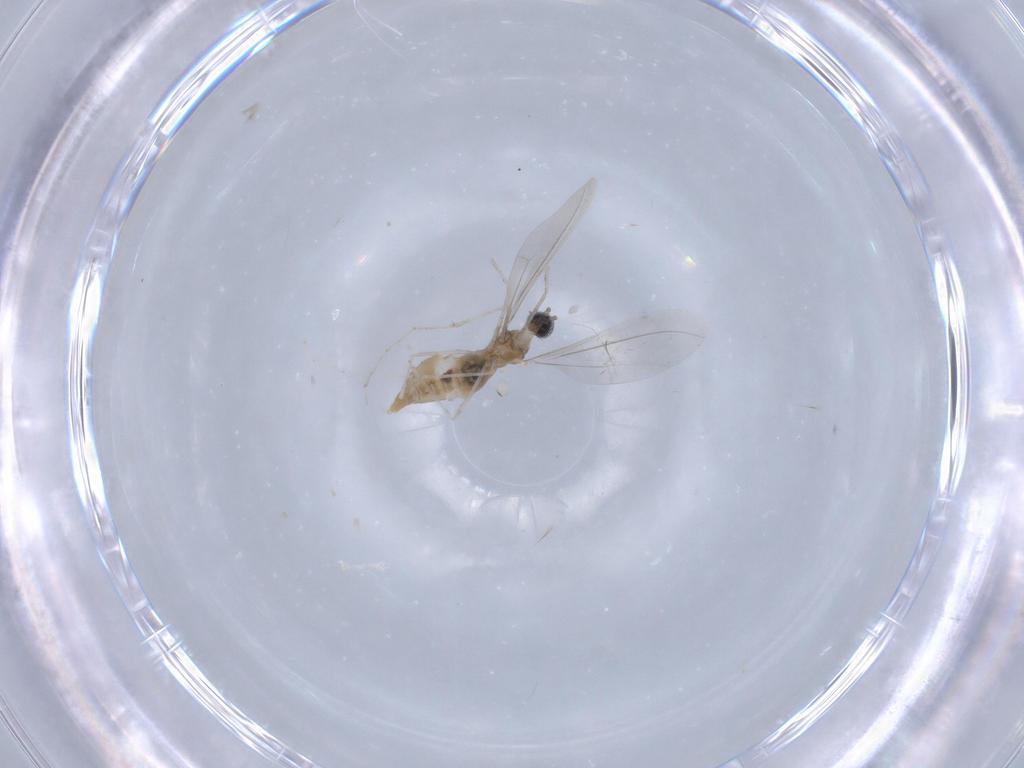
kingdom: Animalia
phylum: Arthropoda
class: Insecta
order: Diptera
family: Cecidomyiidae
